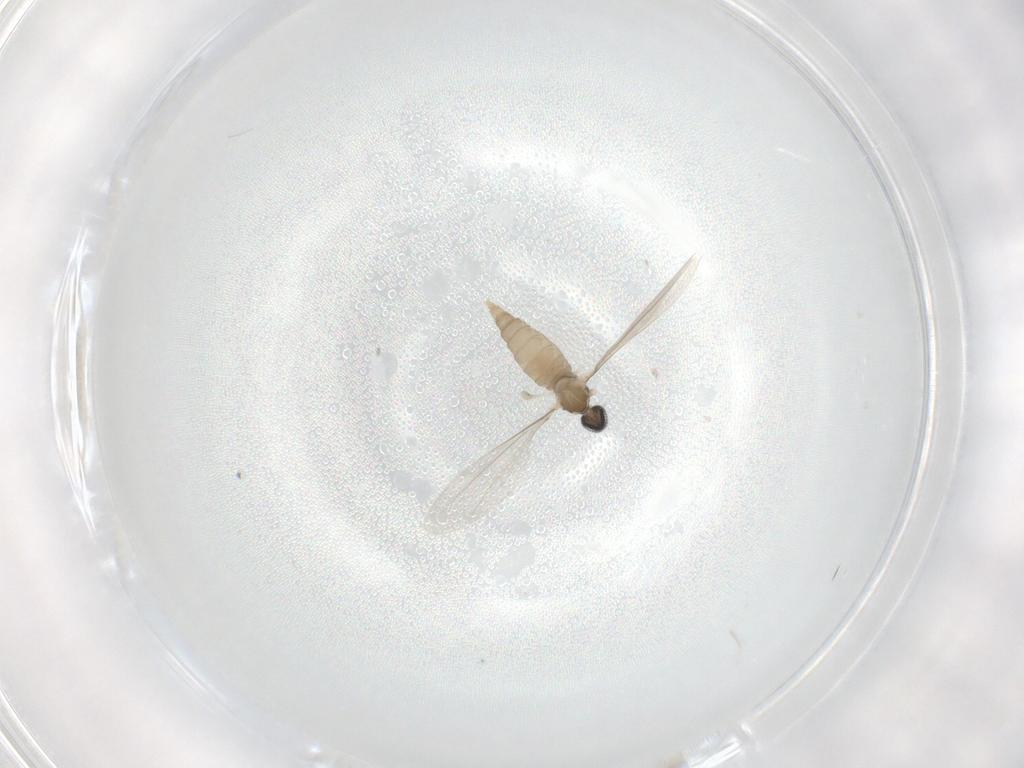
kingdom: Animalia
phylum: Arthropoda
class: Insecta
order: Diptera
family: Cecidomyiidae
